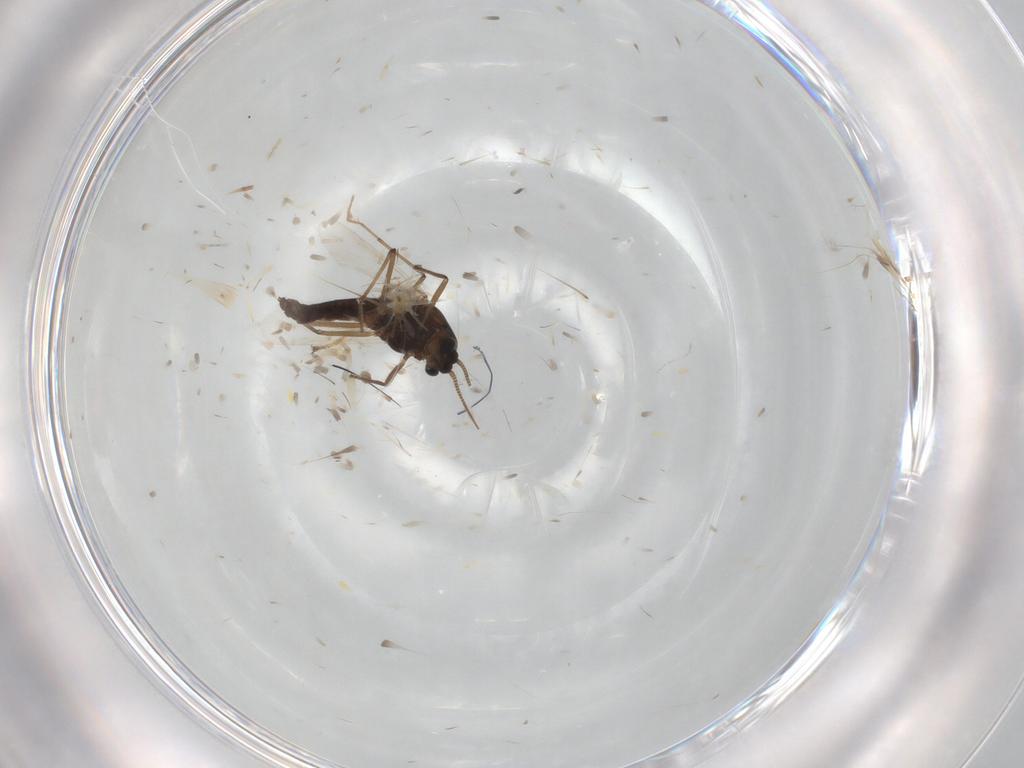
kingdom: Animalia
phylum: Arthropoda
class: Insecta
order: Diptera
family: Chironomidae
